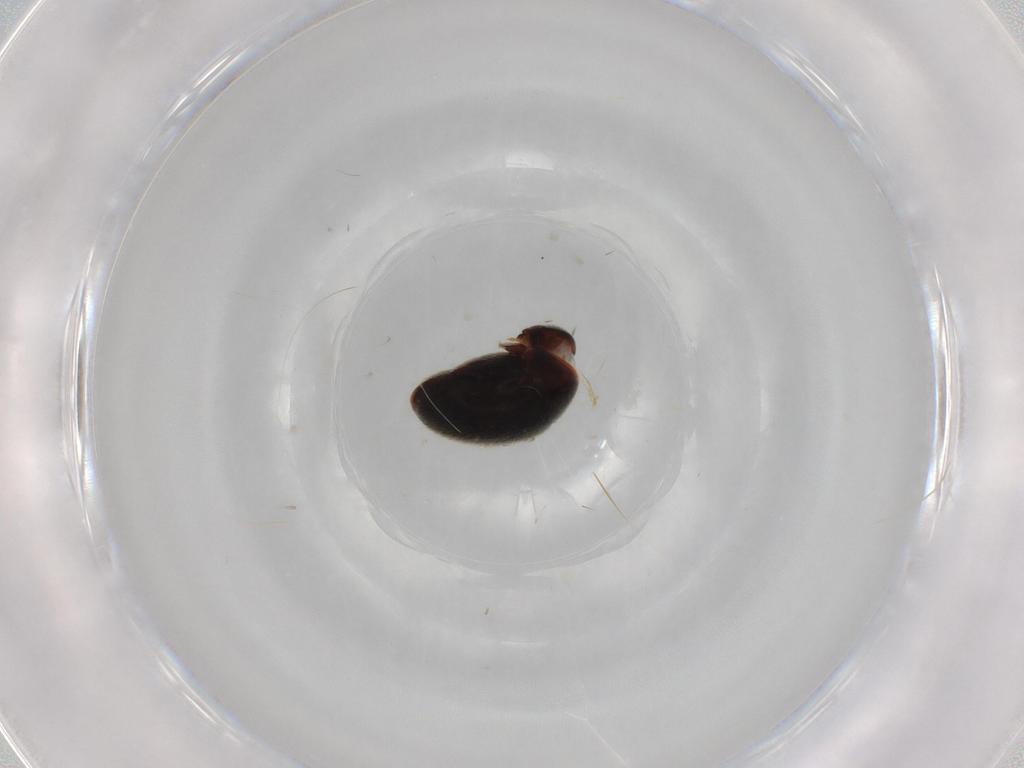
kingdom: Animalia
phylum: Arthropoda
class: Insecta
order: Coleoptera
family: Ptinidae
